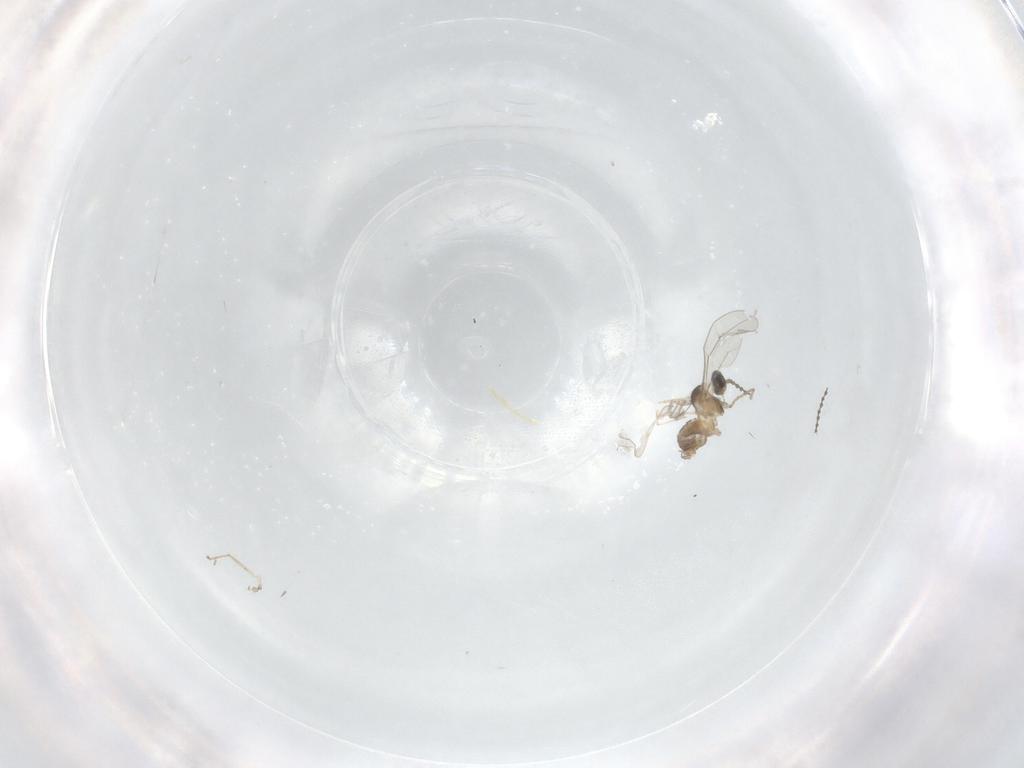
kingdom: Animalia
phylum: Arthropoda
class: Insecta
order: Diptera
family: Cecidomyiidae
